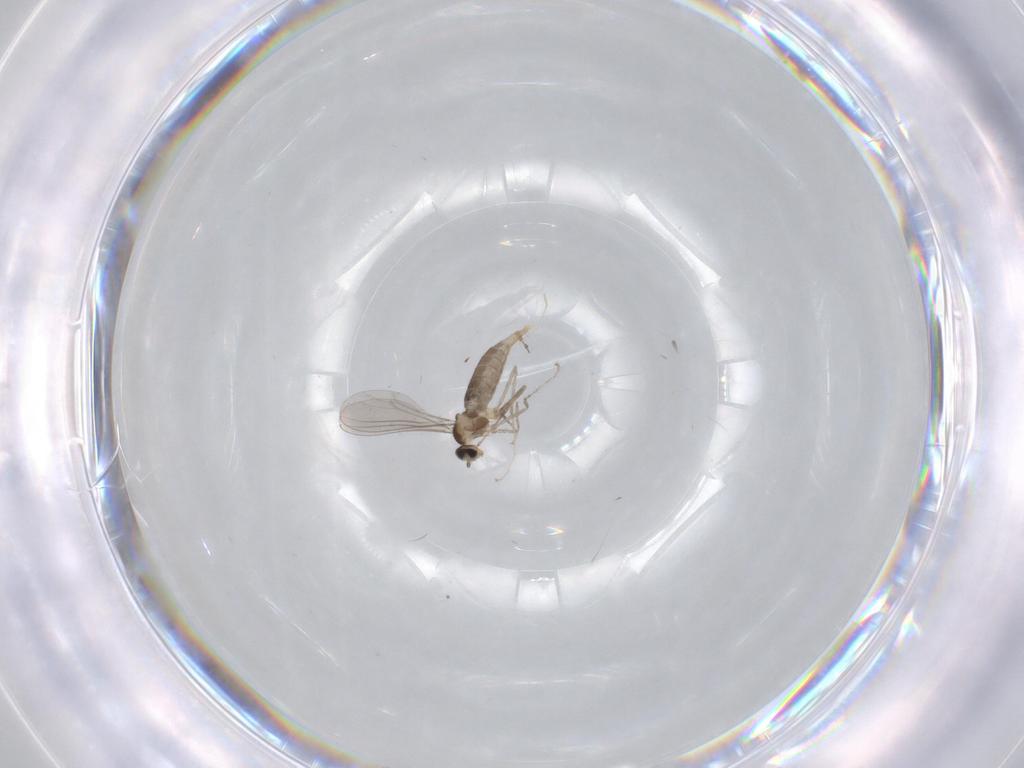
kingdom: Animalia
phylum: Arthropoda
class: Insecta
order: Diptera
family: Cecidomyiidae
